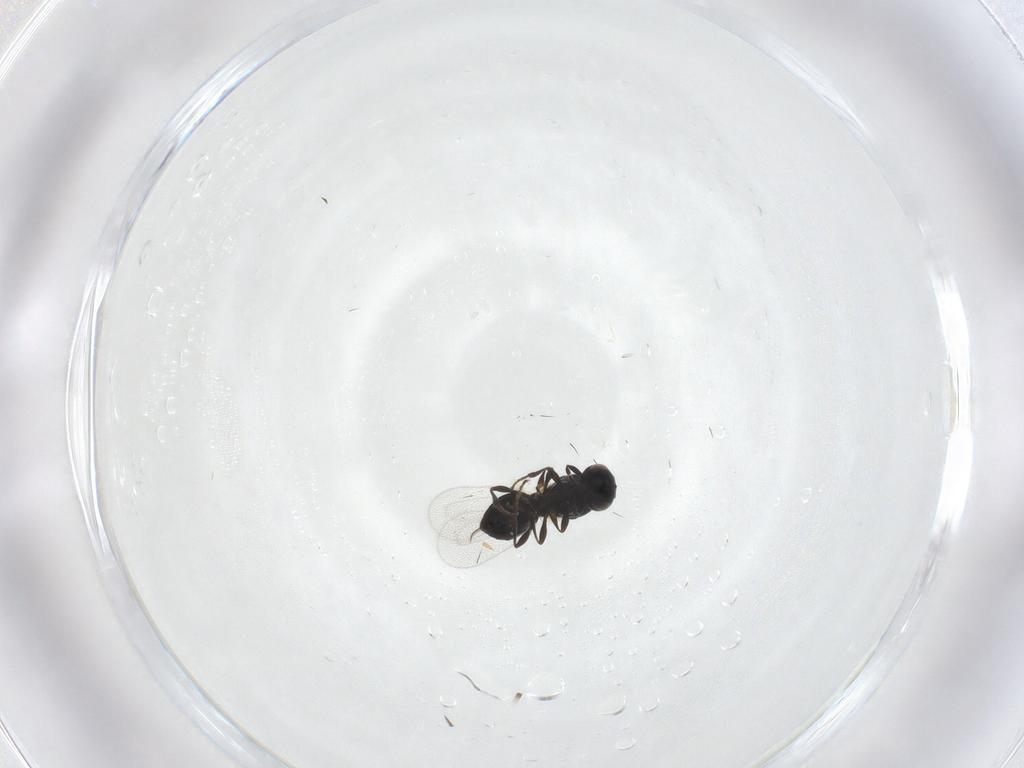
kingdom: Animalia
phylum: Arthropoda
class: Insecta
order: Hymenoptera
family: Platygastridae
